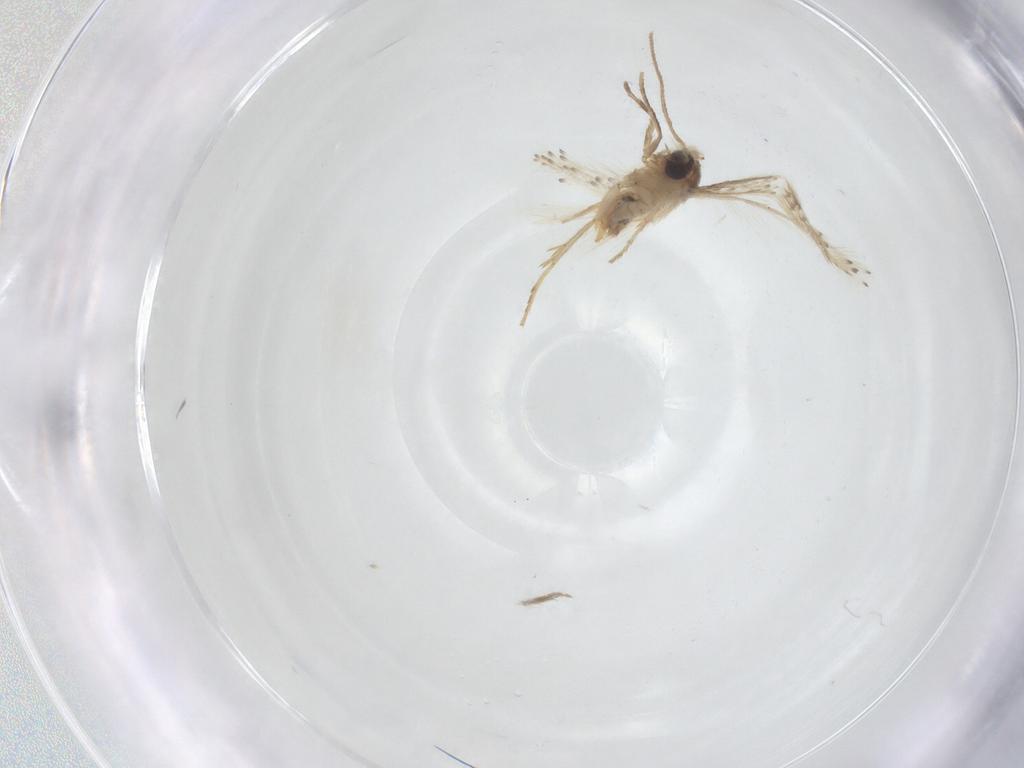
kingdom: Animalia
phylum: Arthropoda
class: Insecta
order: Lepidoptera
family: Nepticulidae
